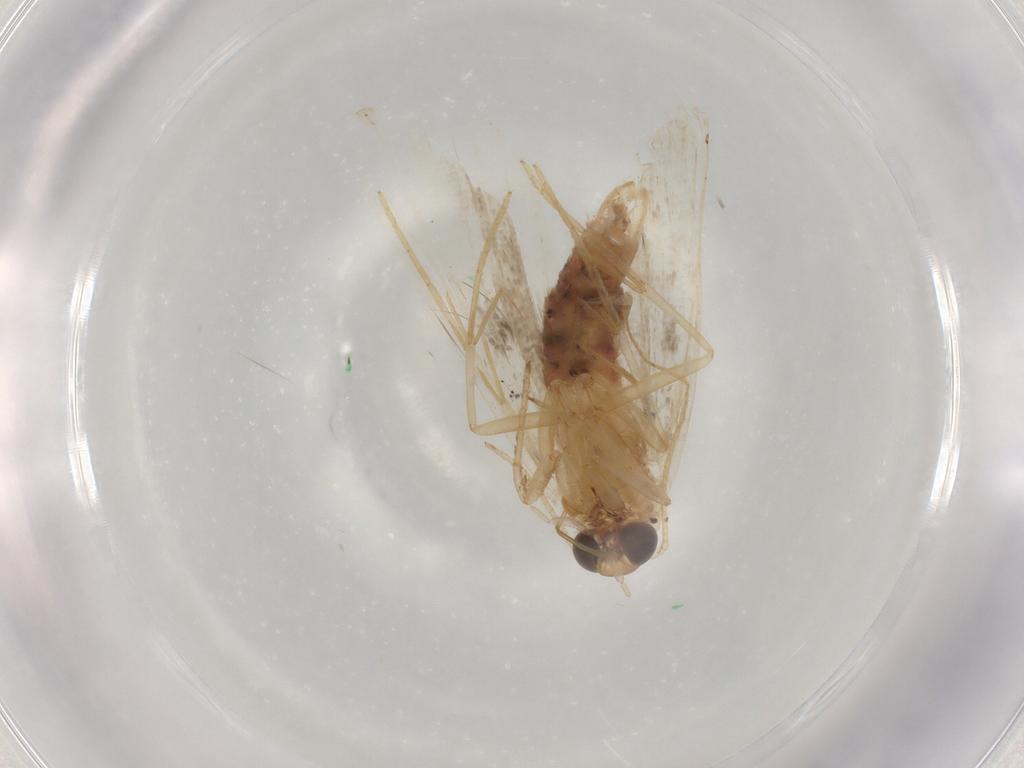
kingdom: Animalia
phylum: Arthropoda
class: Insecta
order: Lepidoptera
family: Erebidae
